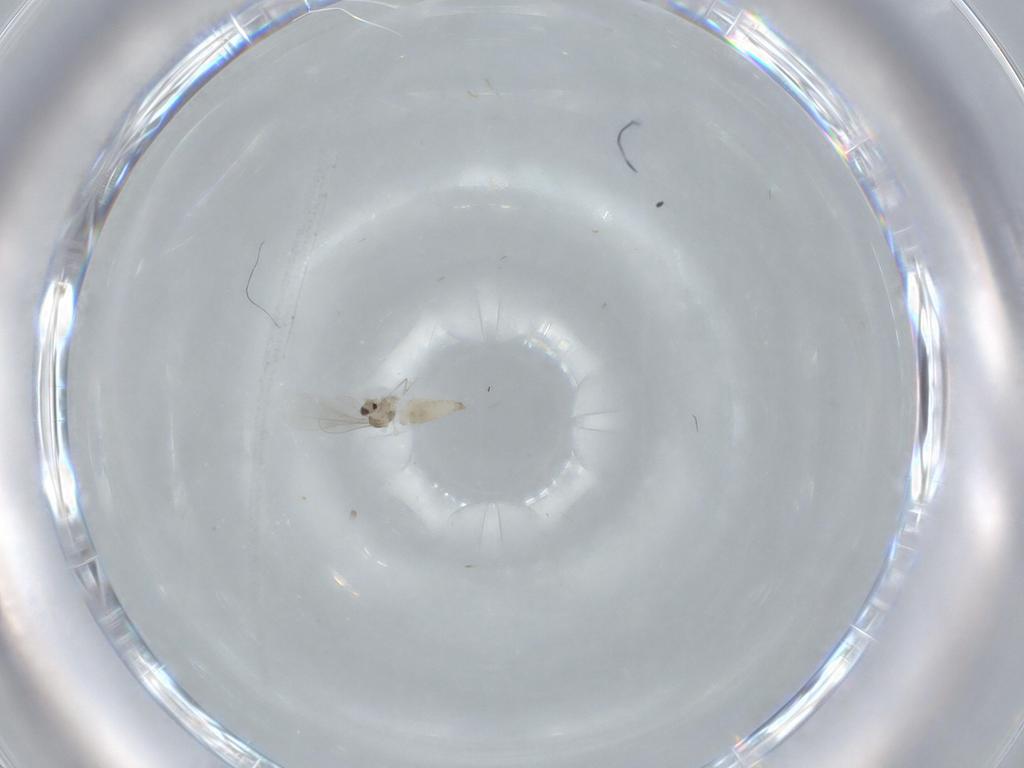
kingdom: Animalia
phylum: Arthropoda
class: Insecta
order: Diptera
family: Cecidomyiidae
